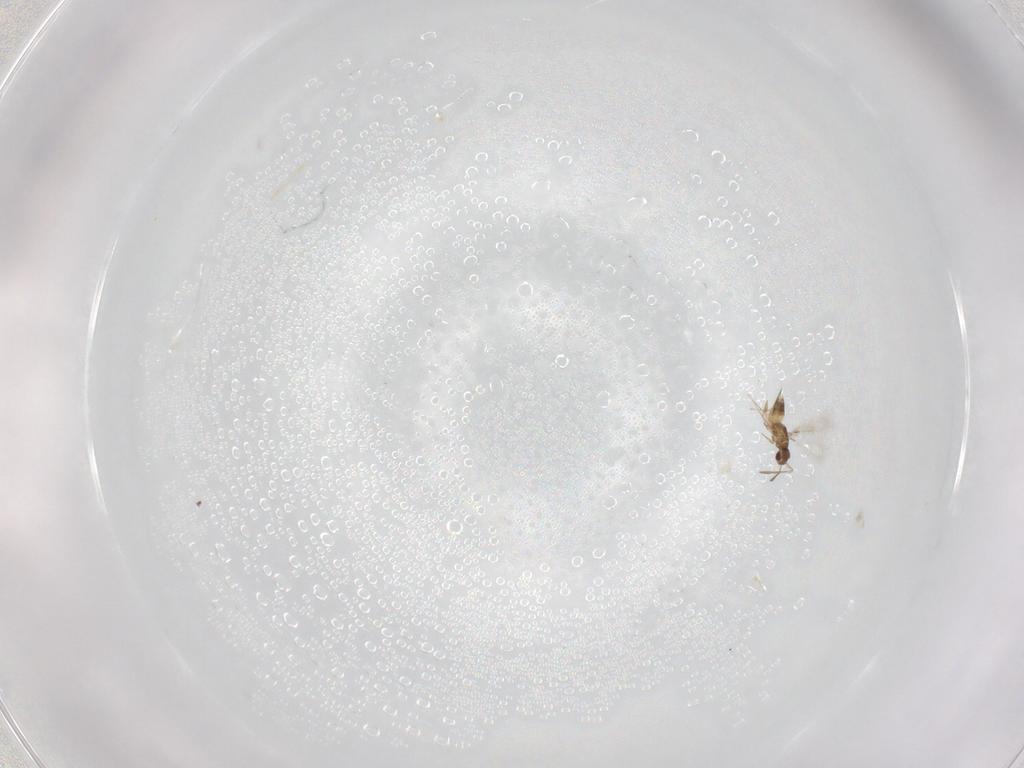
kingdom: Animalia
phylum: Arthropoda
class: Insecta
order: Hymenoptera
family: Mymaridae
